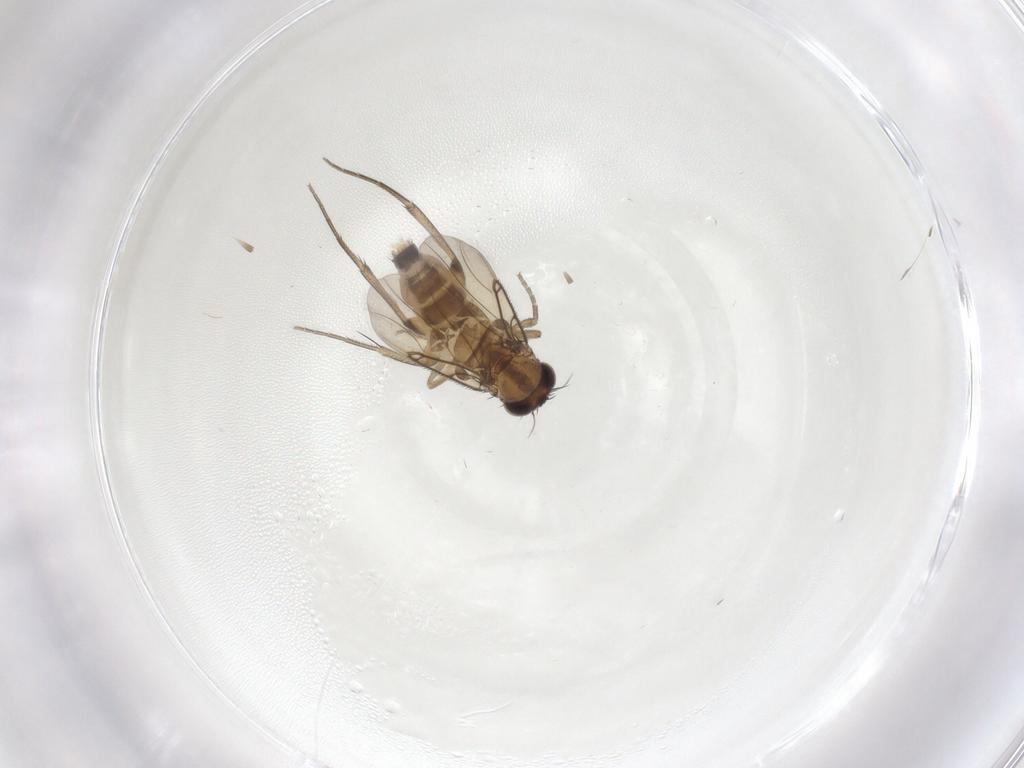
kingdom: Animalia
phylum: Arthropoda
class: Insecta
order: Diptera
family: Phoridae
